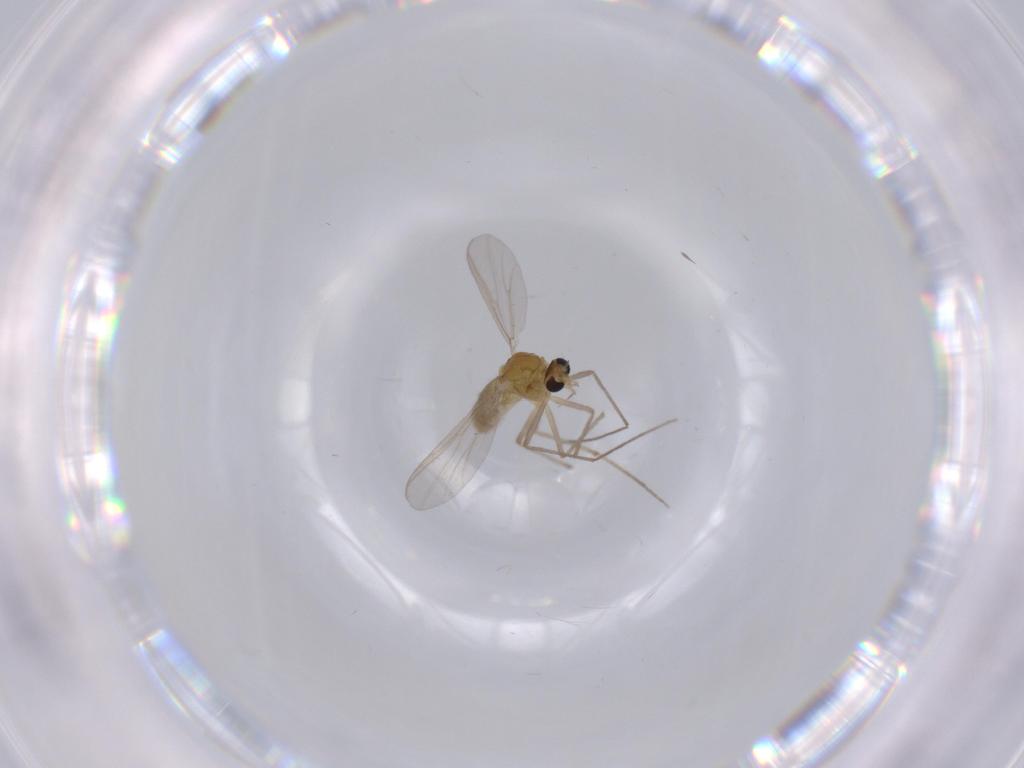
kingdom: Animalia
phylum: Arthropoda
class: Insecta
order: Diptera
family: Chironomidae
